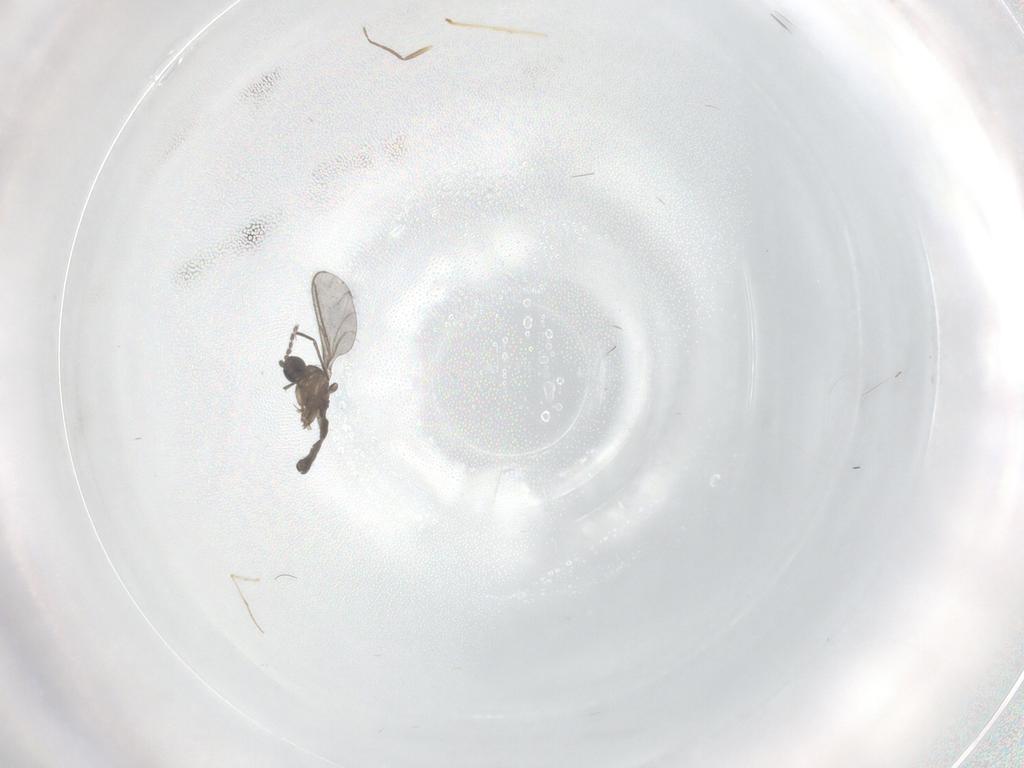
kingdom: Animalia
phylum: Arthropoda
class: Insecta
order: Diptera
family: Chironomidae
